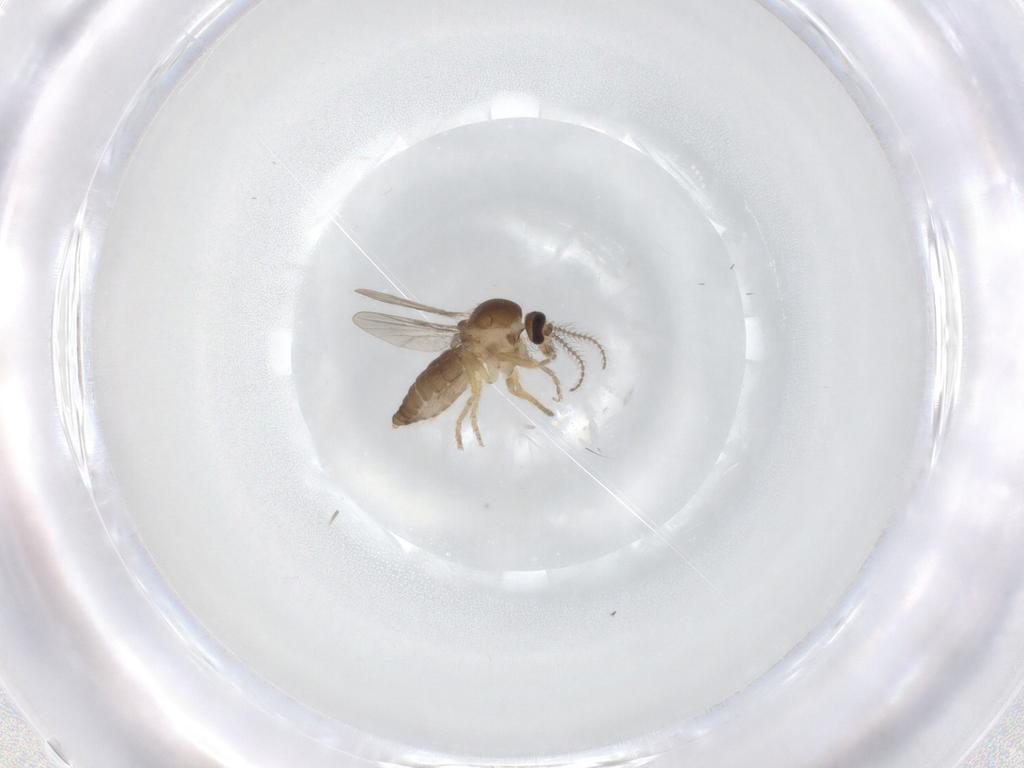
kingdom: Animalia
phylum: Arthropoda
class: Insecta
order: Diptera
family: Ceratopogonidae
